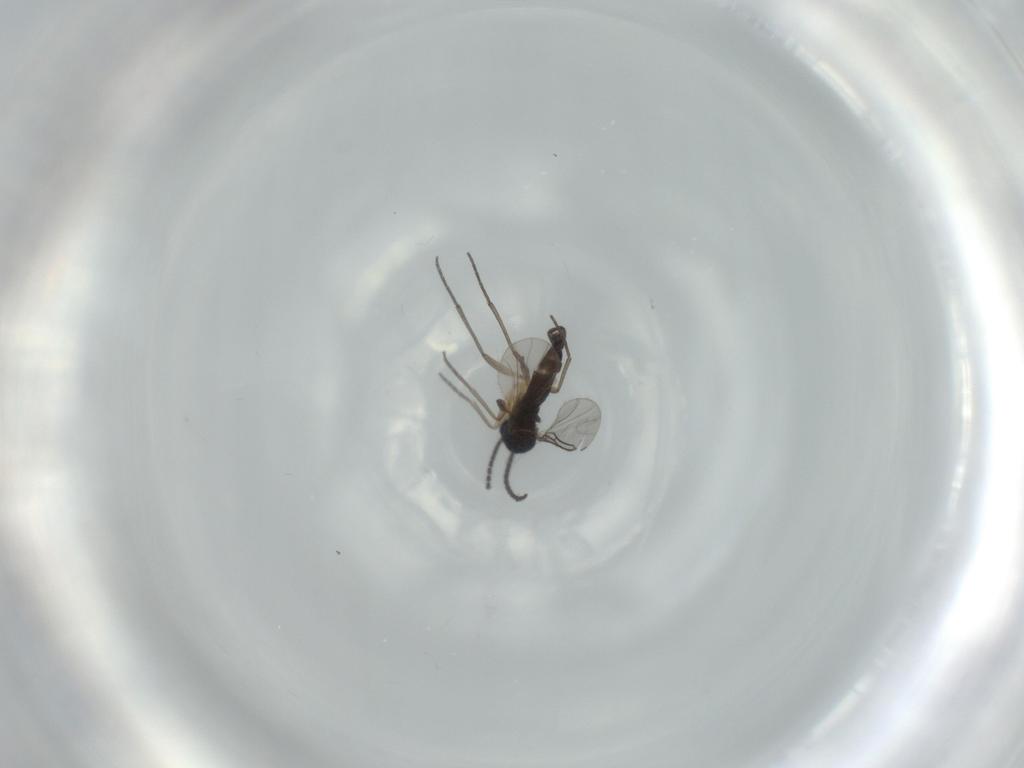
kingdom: Animalia
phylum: Arthropoda
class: Insecta
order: Diptera
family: Sciaridae
